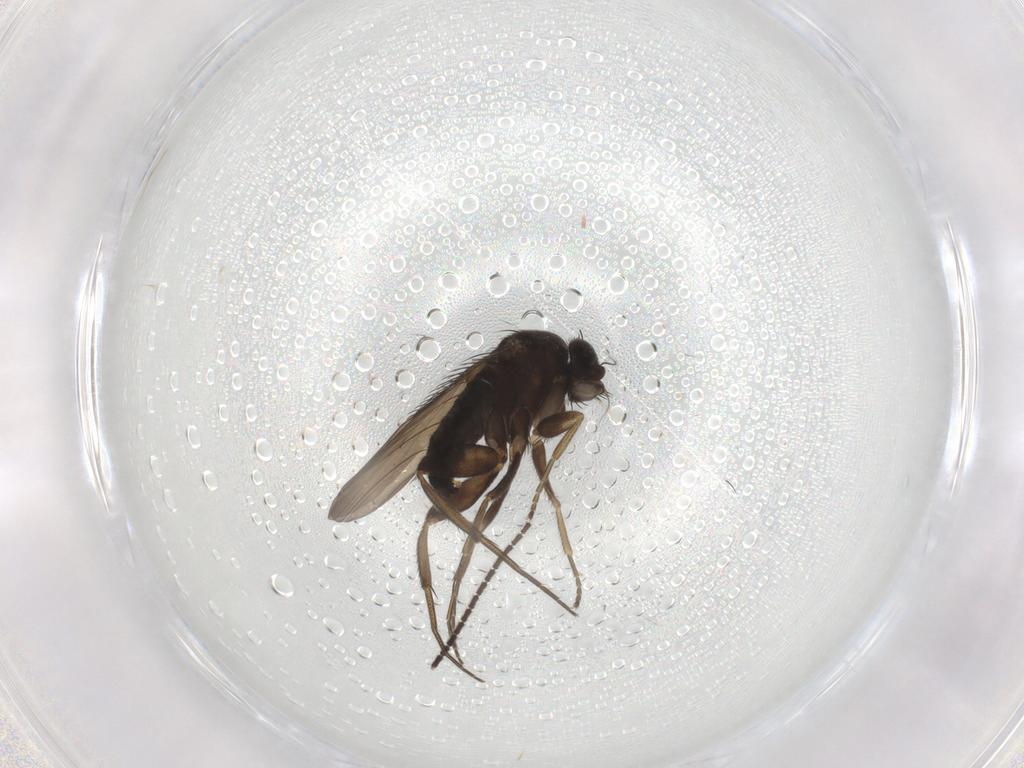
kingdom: Animalia
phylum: Arthropoda
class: Insecta
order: Diptera
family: Phoridae
